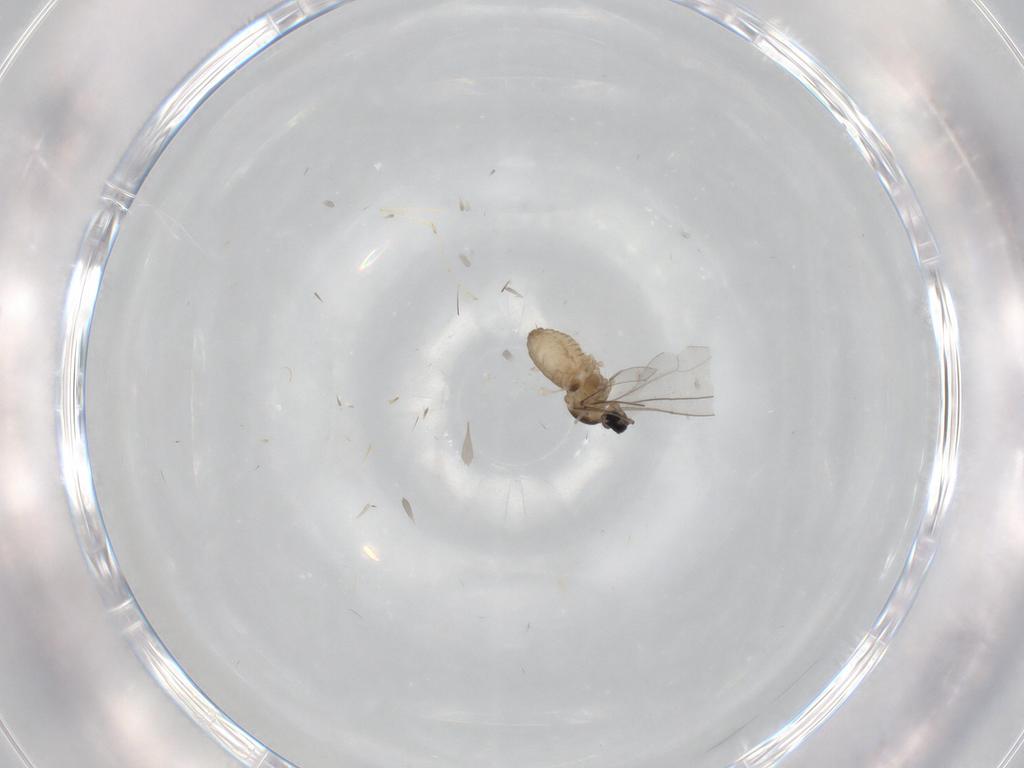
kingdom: Animalia
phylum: Arthropoda
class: Insecta
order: Diptera
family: Cecidomyiidae
